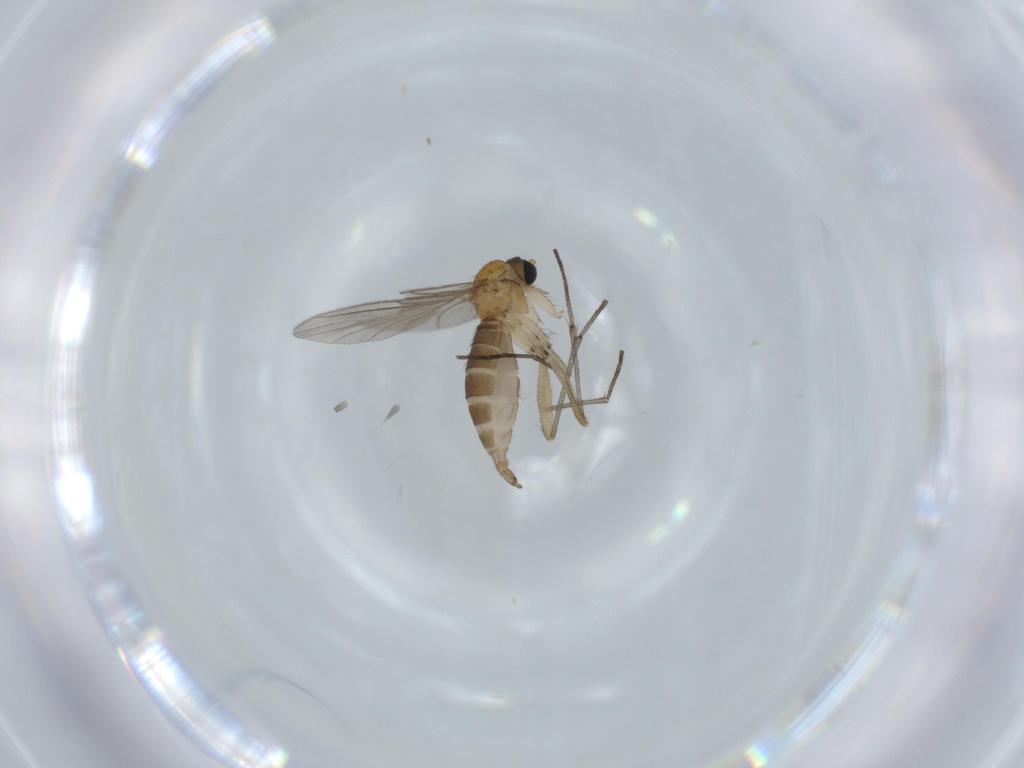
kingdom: Animalia
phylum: Arthropoda
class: Insecta
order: Diptera
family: Sciaridae
